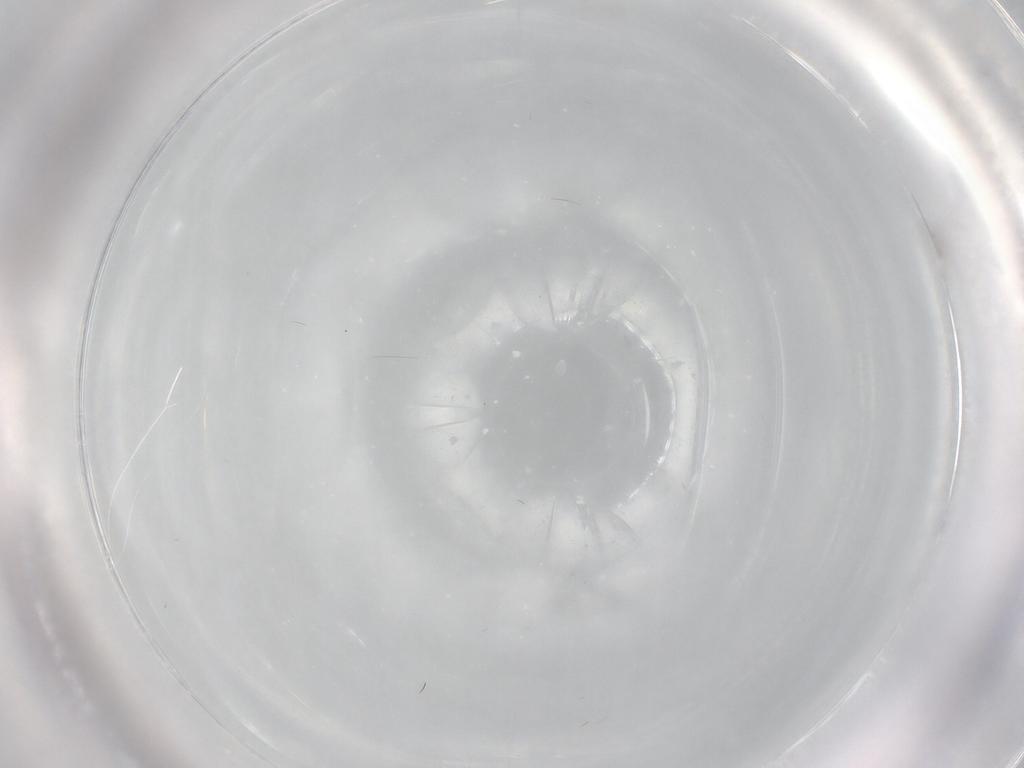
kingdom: Animalia
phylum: Arthropoda
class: Insecta
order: Diptera
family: Cecidomyiidae
